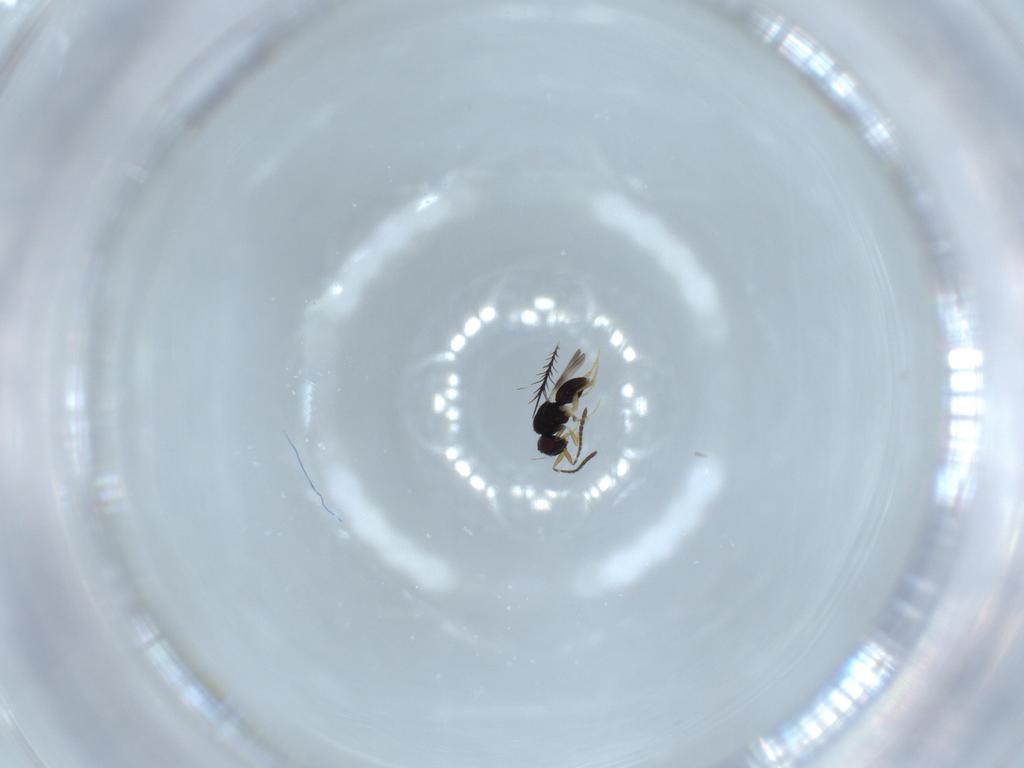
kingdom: Animalia
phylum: Arthropoda
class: Insecta
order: Hymenoptera
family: Ceraphronidae
